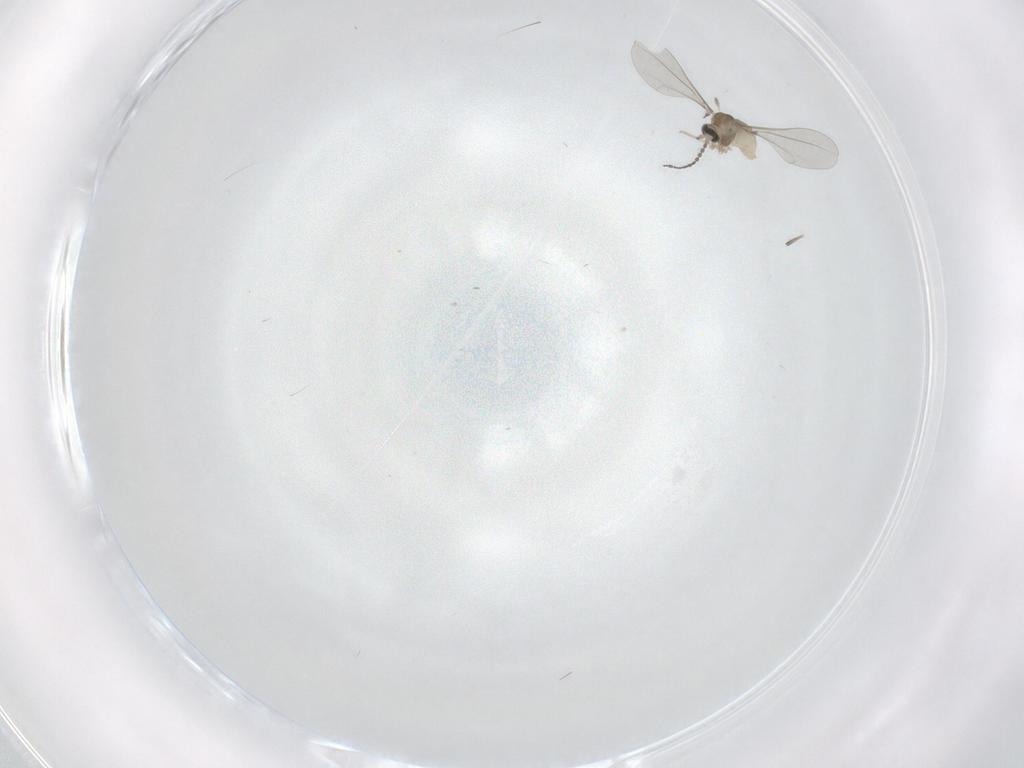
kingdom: Animalia
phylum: Arthropoda
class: Insecta
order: Diptera
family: Cecidomyiidae
